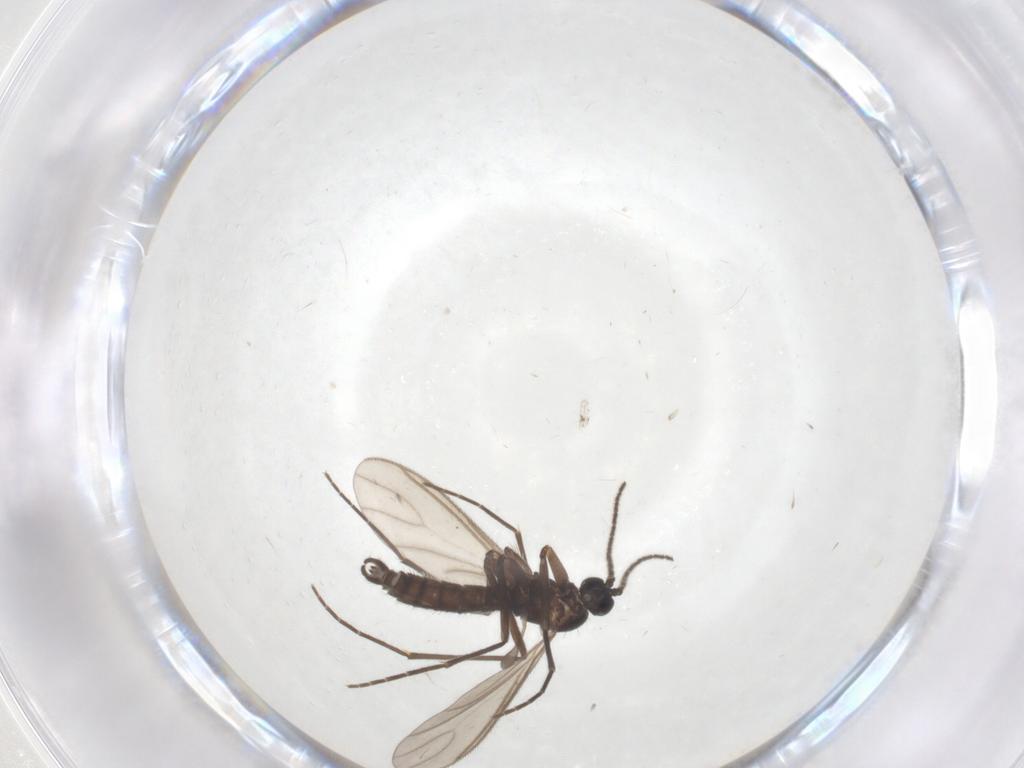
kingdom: Animalia
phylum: Arthropoda
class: Insecta
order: Diptera
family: Sciaridae
